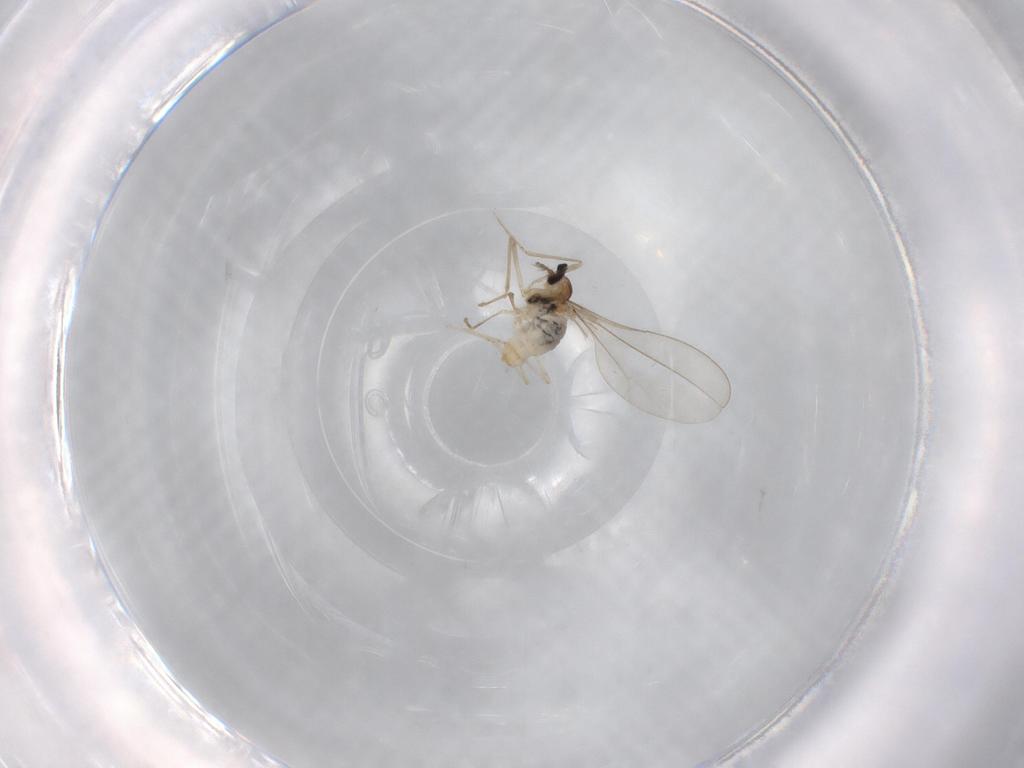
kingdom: Animalia
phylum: Arthropoda
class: Insecta
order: Diptera
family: Cecidomyiidae
